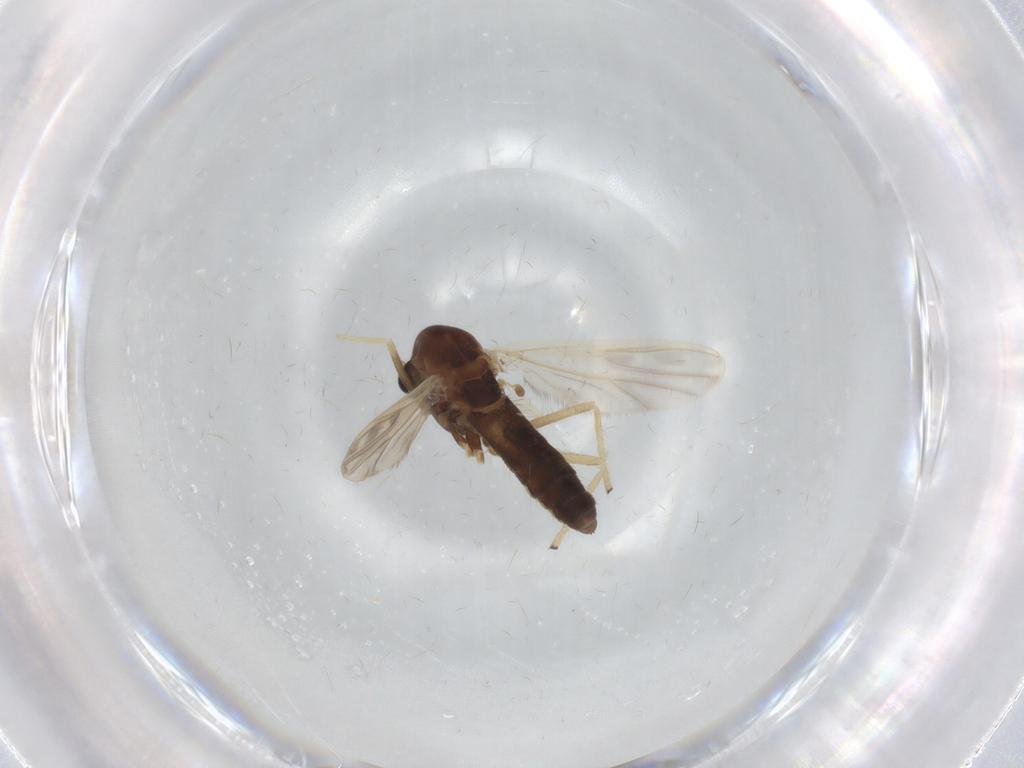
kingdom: Animalia
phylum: Arthropoda
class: Insecta
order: Diptera
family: Chironomidae
